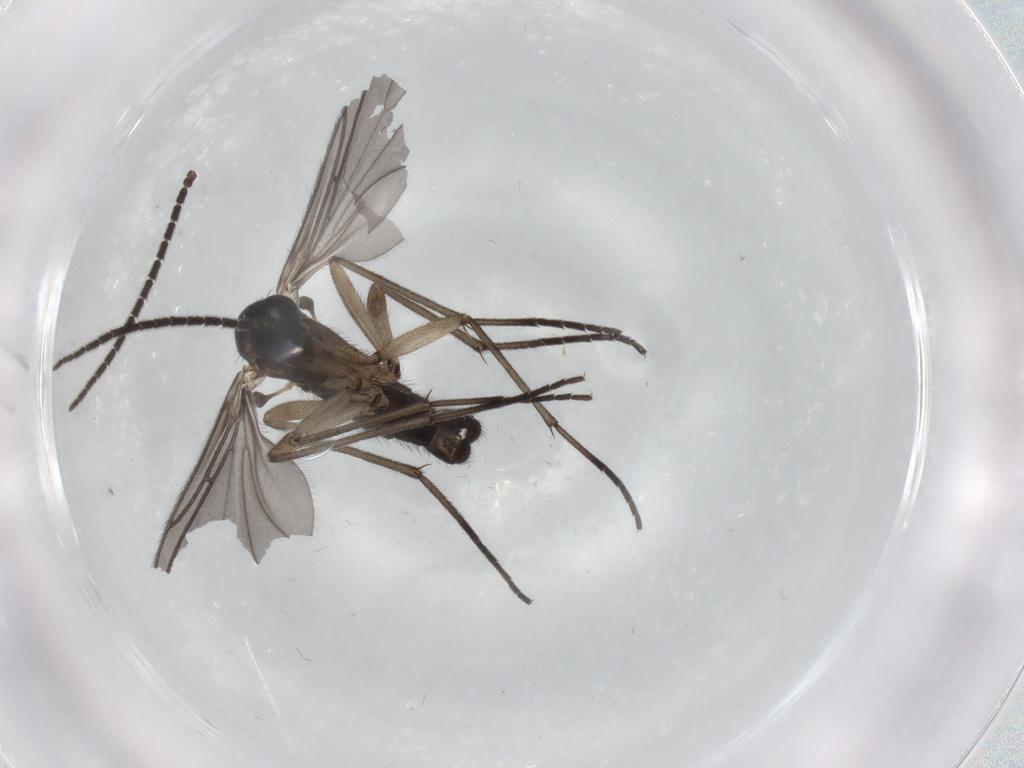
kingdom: Animalia
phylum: Arthropoda
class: Insecta
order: Diptera
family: Sciaridae
